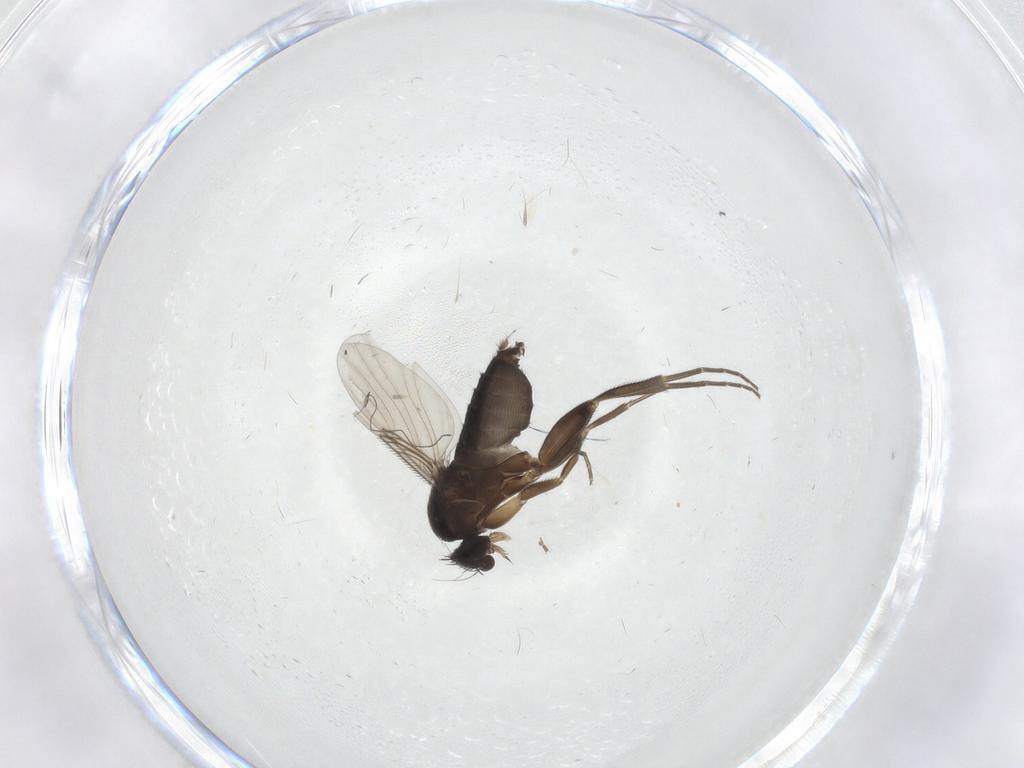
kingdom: Animalia
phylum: Arthropoda
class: Insecta
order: Diptera
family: Phoridae
